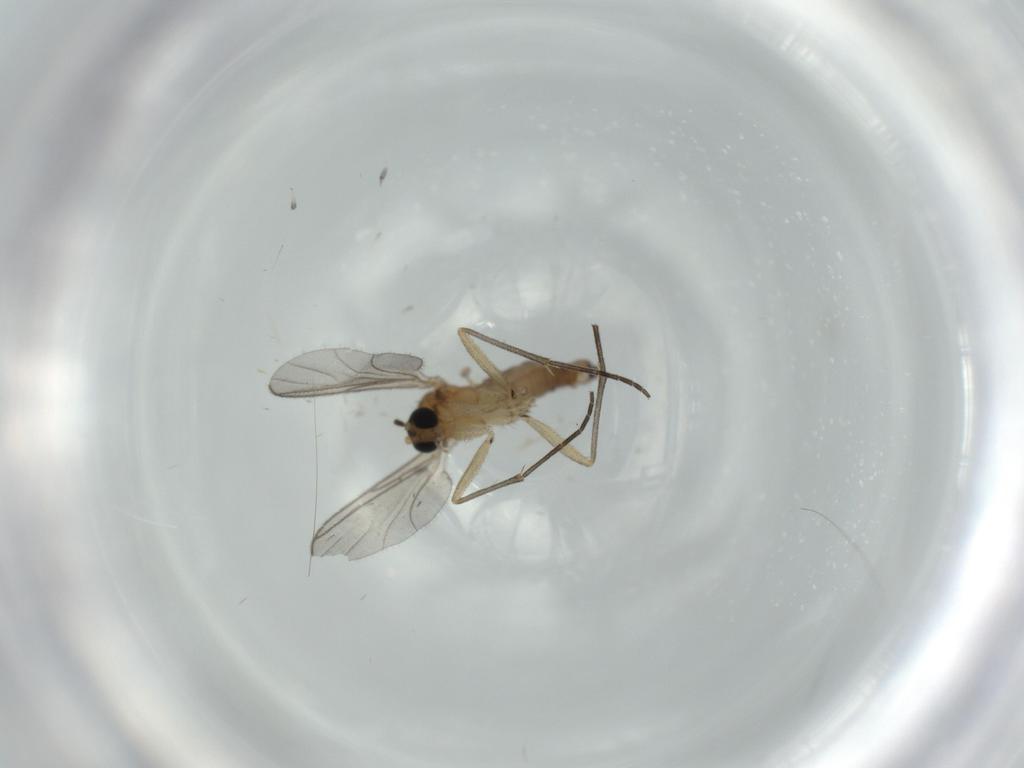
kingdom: Animalia
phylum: Arthropoda
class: Insecta
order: Diptera
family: Sciaridae
